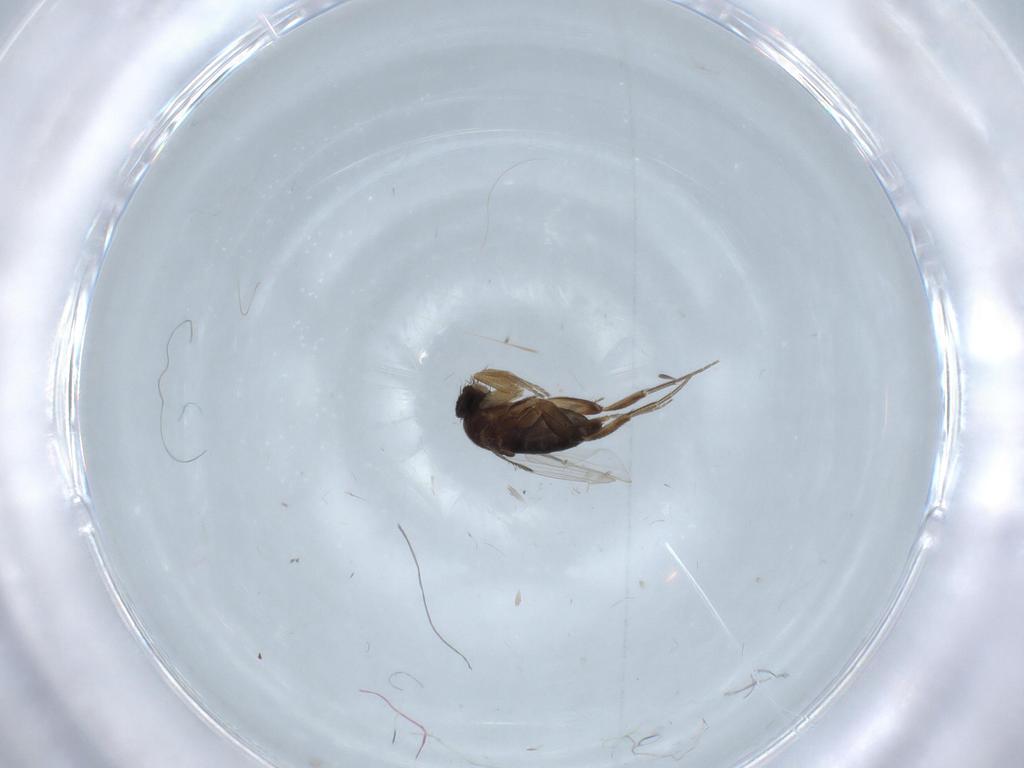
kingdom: Animalia
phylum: Arthropoda
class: Insecta
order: Diptera
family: Phoridae
